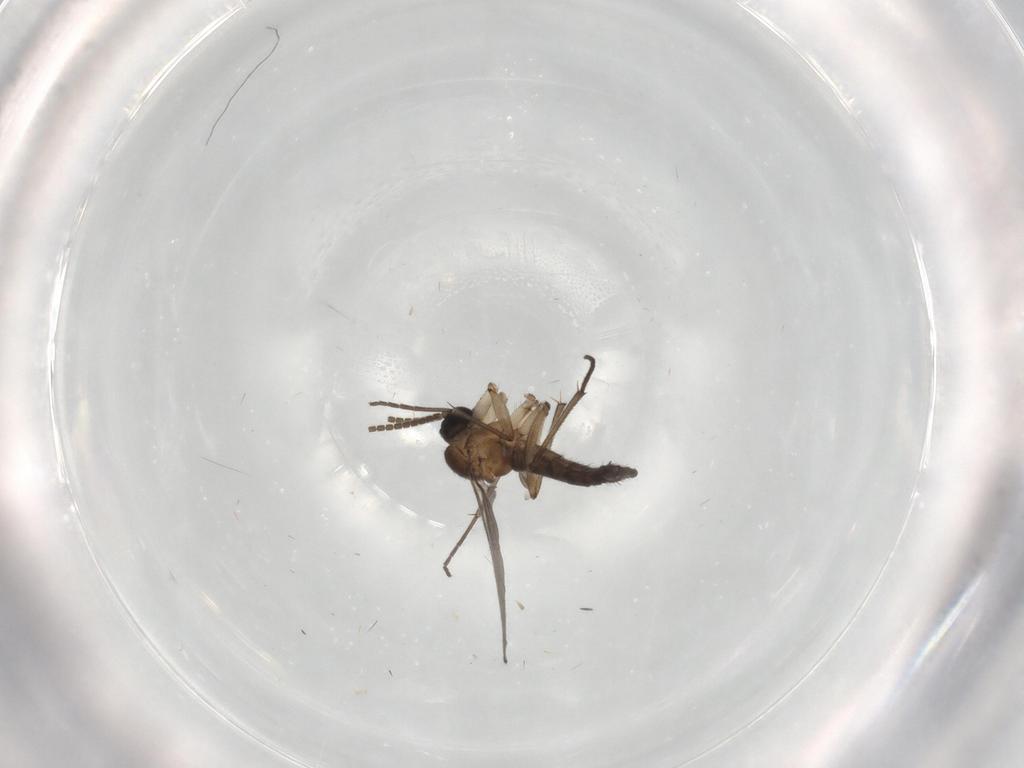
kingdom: Animalia
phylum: Arthropoda
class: Insecta
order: Diptera
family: Cecidomyiidae
